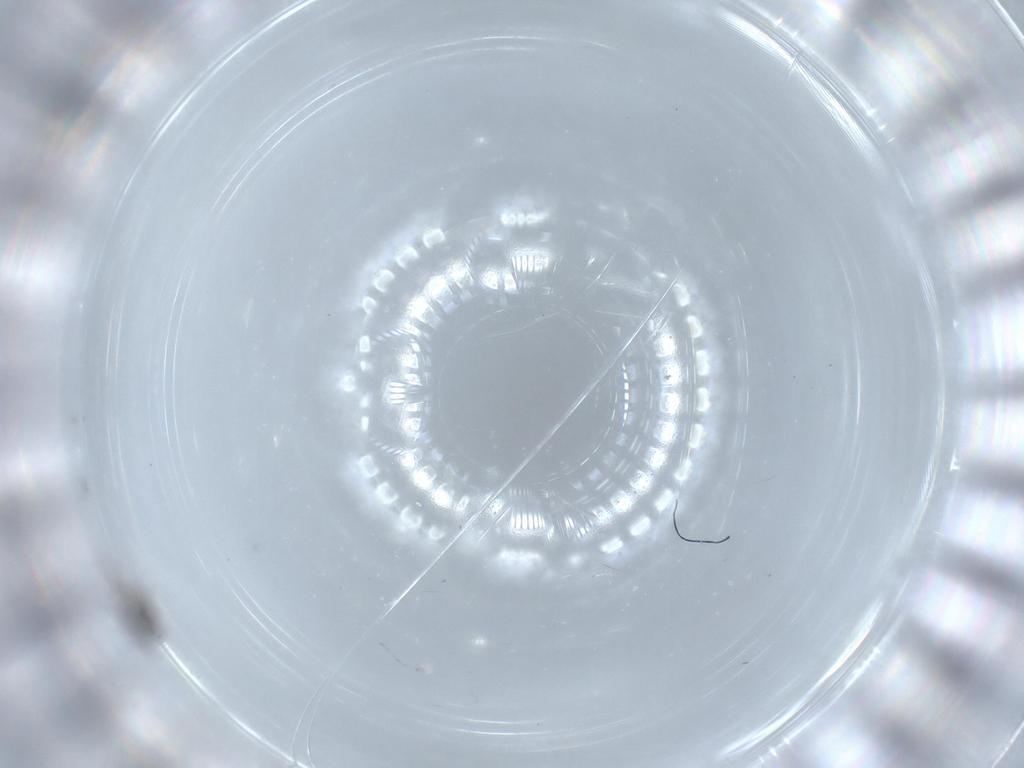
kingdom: Animalia
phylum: Arthropoda
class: Insecta
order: Diptera
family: Cecidomyiidae
